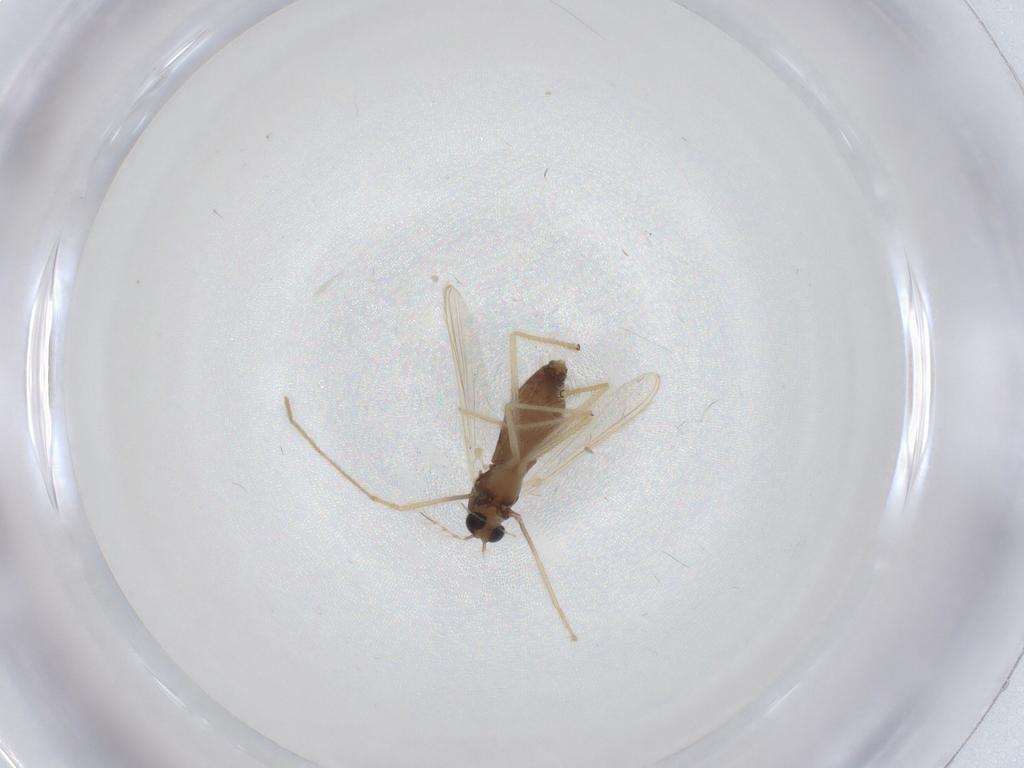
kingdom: Animalia
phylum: Arthropoda
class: Insecta
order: Diptera
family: Chironomidae
